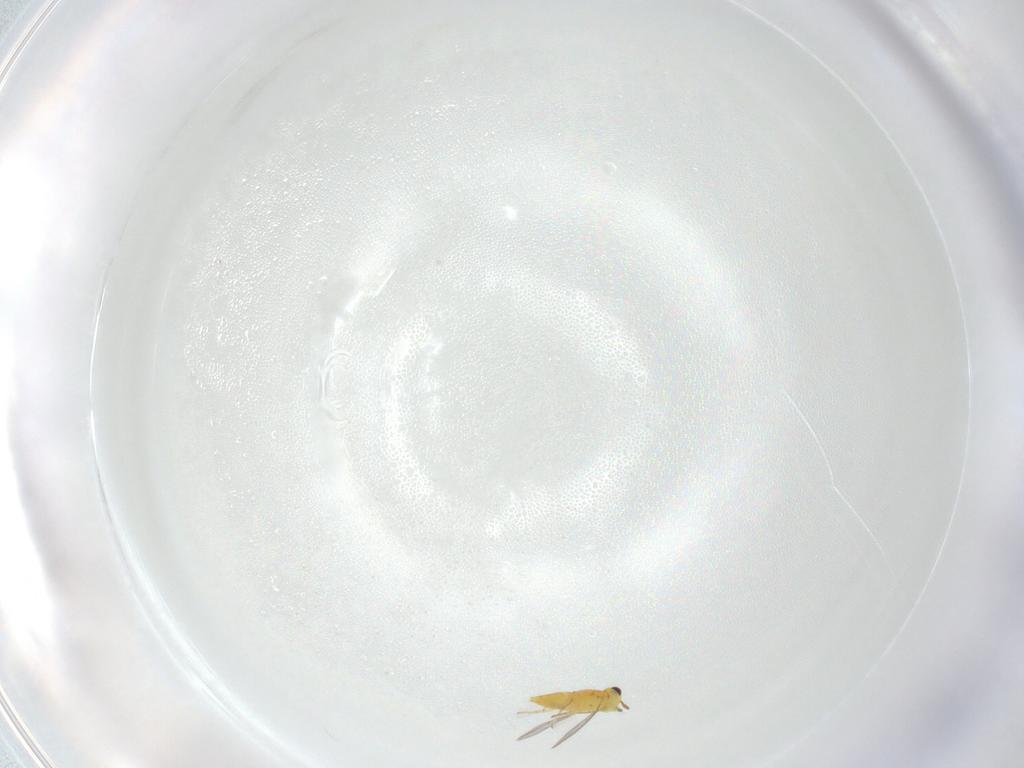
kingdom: Animalia
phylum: Arthropoda
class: Insecta
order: Hymenoptera
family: Aphelinidae
